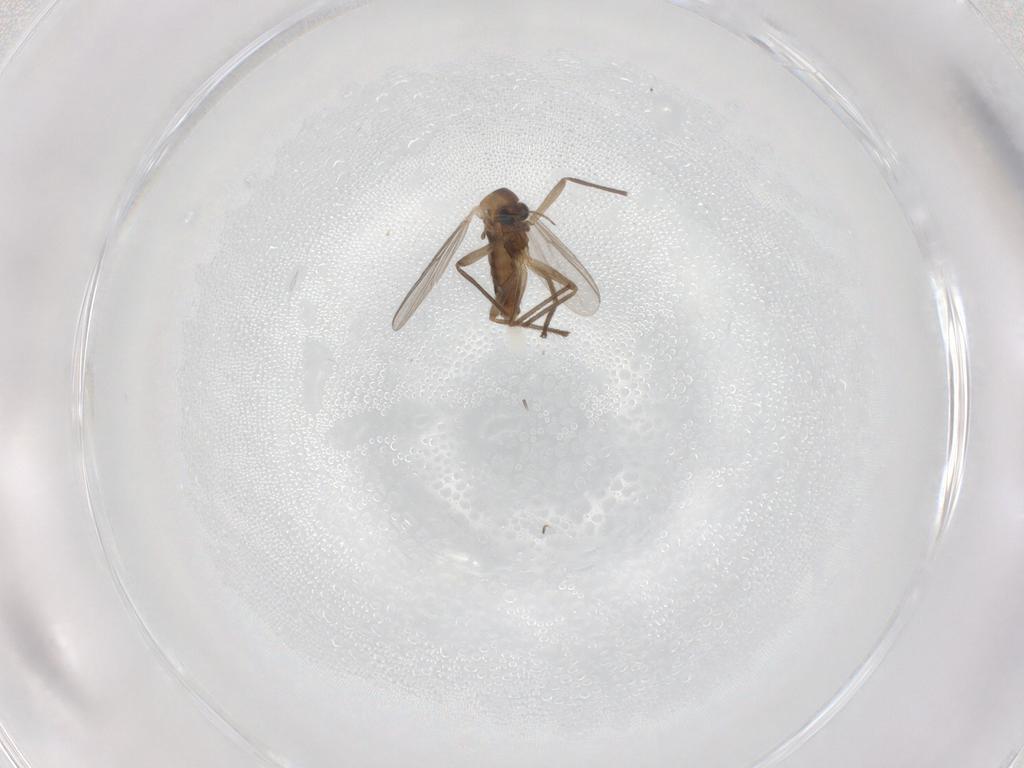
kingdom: Animalia
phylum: Arthropoda
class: Insecta
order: Diptera
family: Chironomidae
